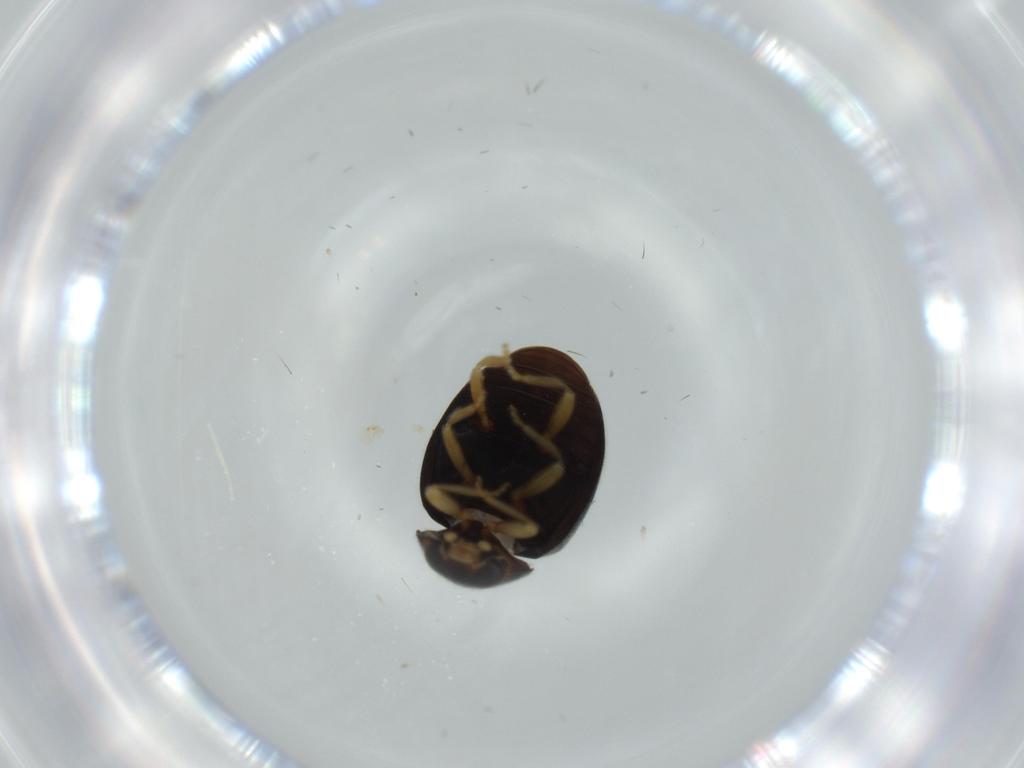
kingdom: Animalia
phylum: Arthropoda
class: Insecta
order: Coleoptera
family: Coccinellidae
